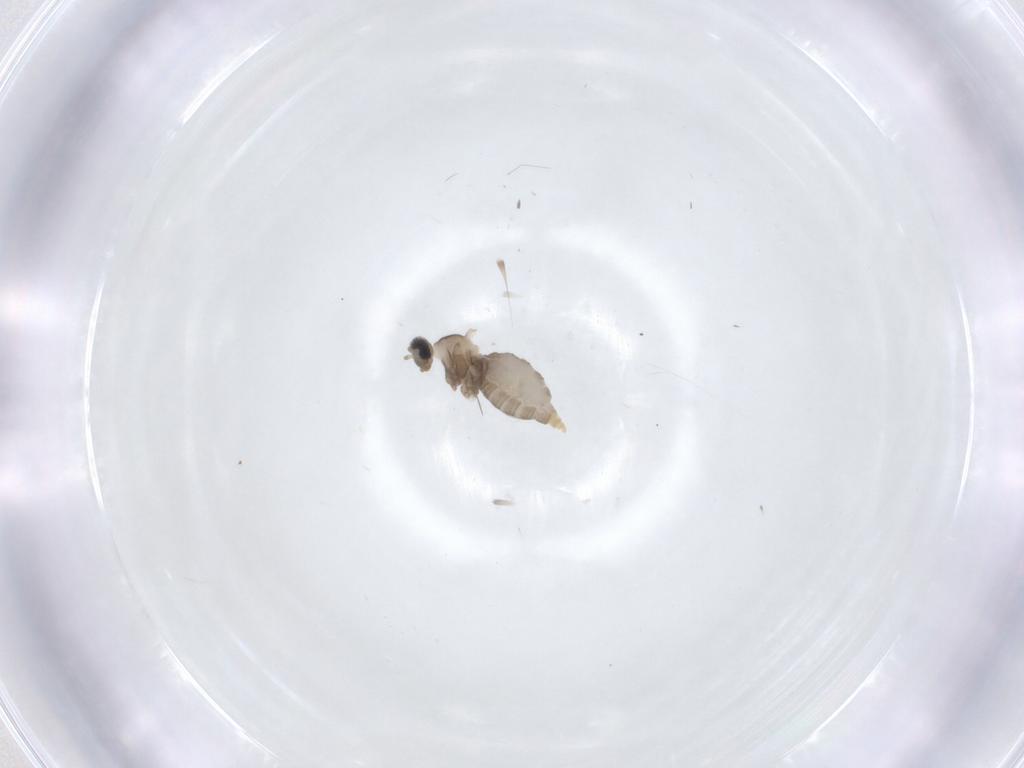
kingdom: Animalia
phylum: Arthropoda
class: Insecta
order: Diptera
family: Cecidomyiidae
